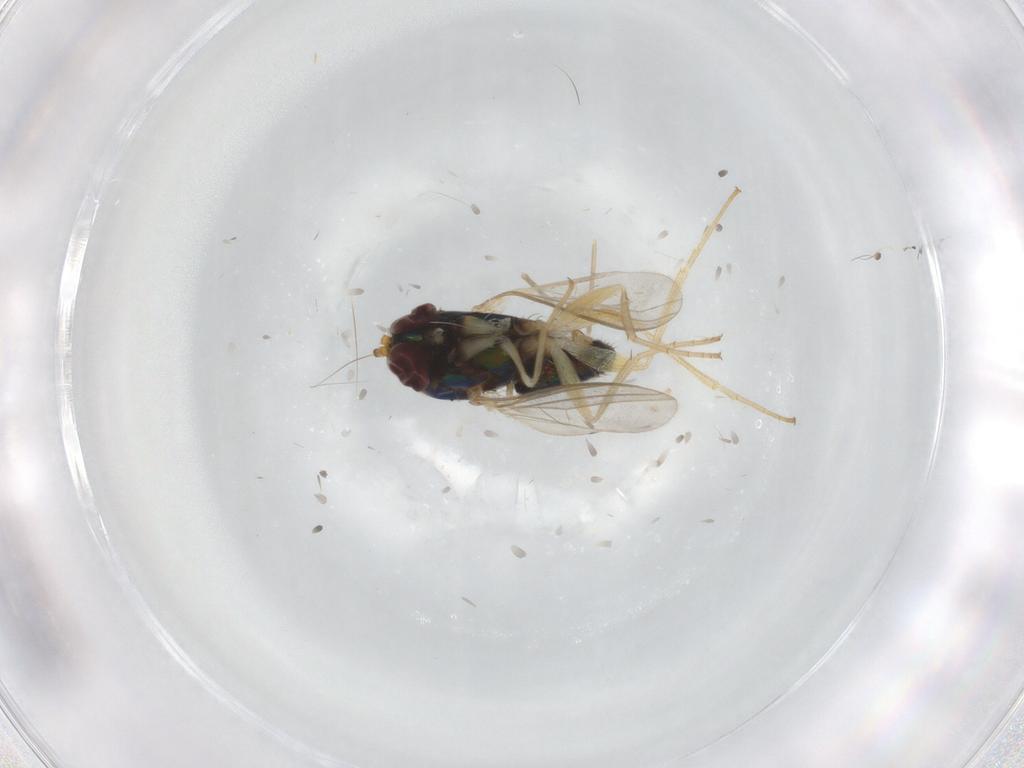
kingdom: Animalia
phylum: Arthropoda
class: Insecta
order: Diptera
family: Dolichopodidae
